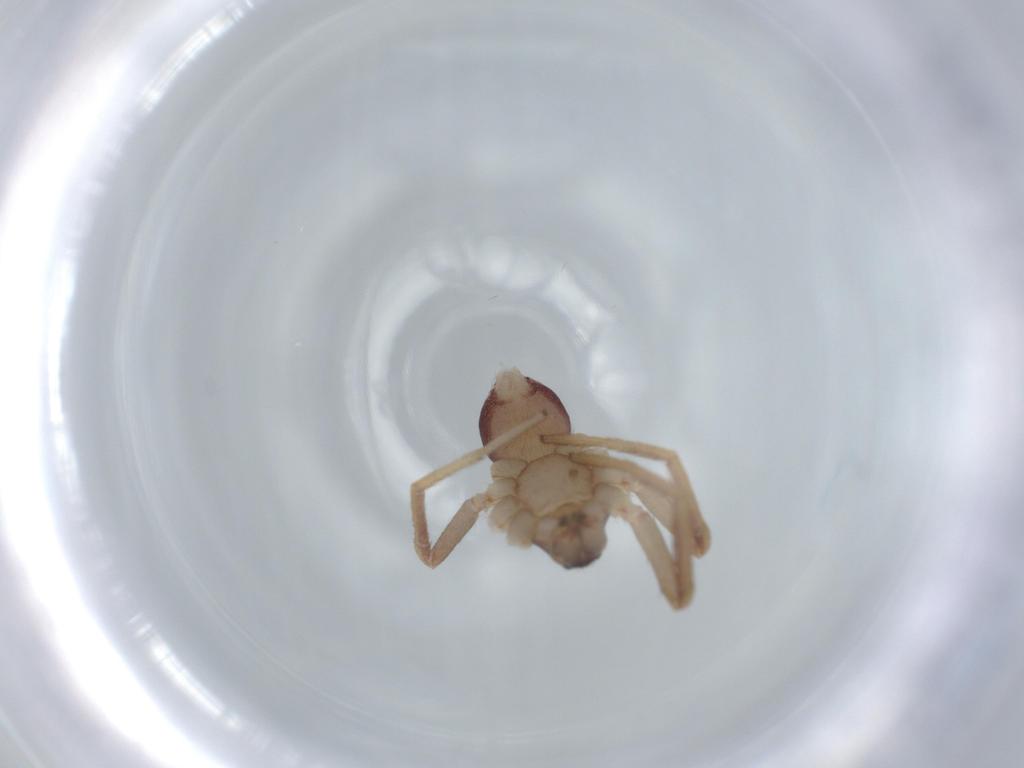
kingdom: Animalia
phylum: Arthropoda
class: Arachnida
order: Araneae
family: Corinnidae
